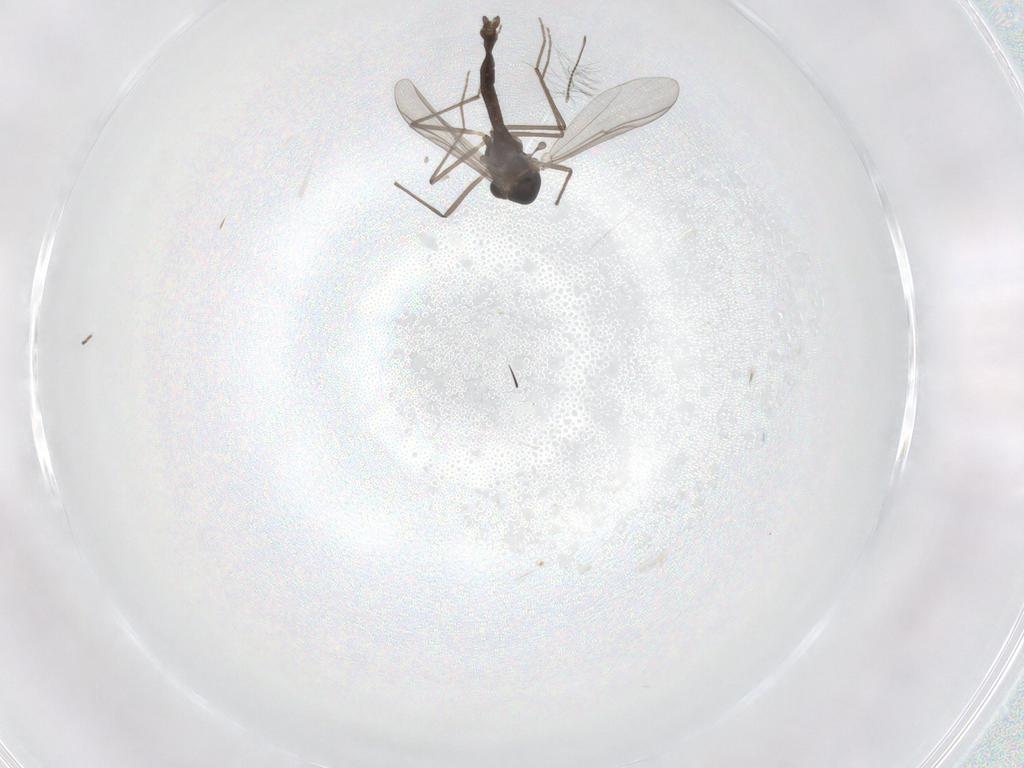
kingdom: Animalia
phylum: Arthropoda
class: Insecta
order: Diptera
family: Chironomidae
